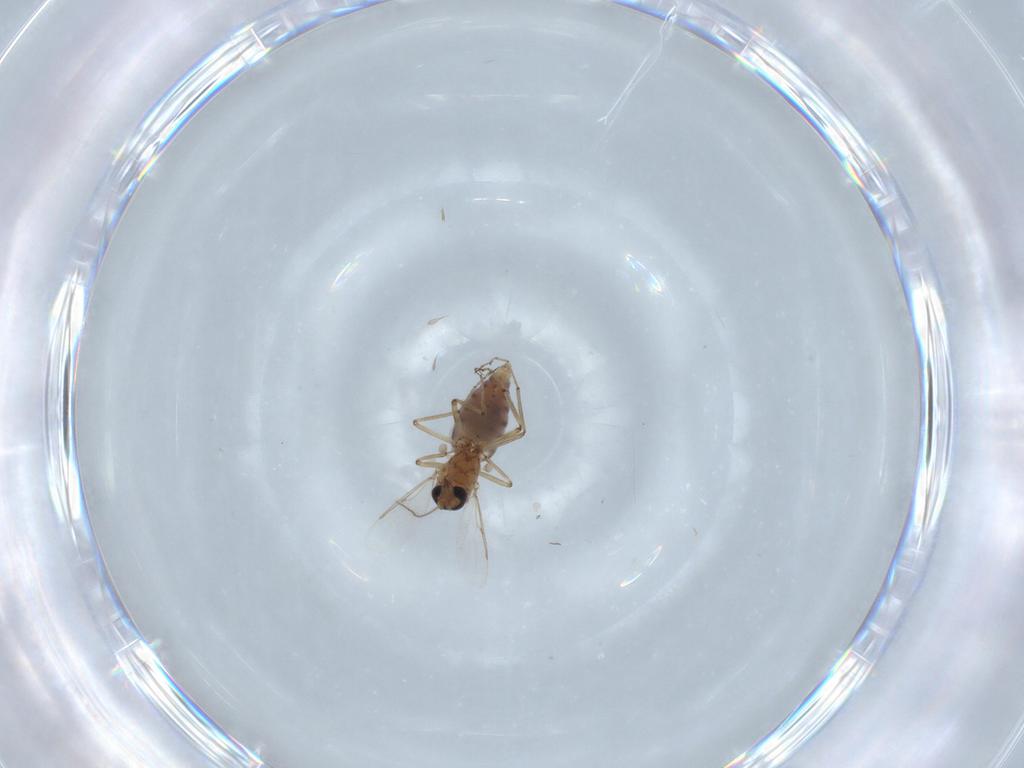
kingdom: Animalia
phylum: Arthropoda
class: Insecta
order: Diptera
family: Ceratopogonidae
